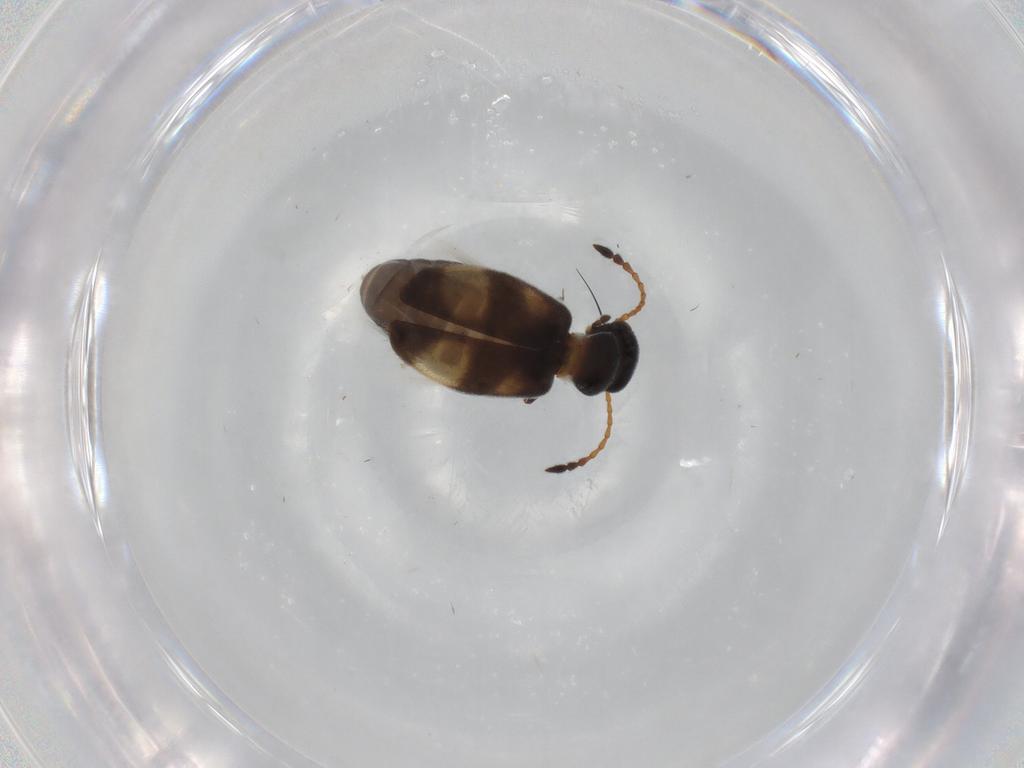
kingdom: Animalia
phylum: Arthropoda
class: Insecta
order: Coleoptera
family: Anthicidae
